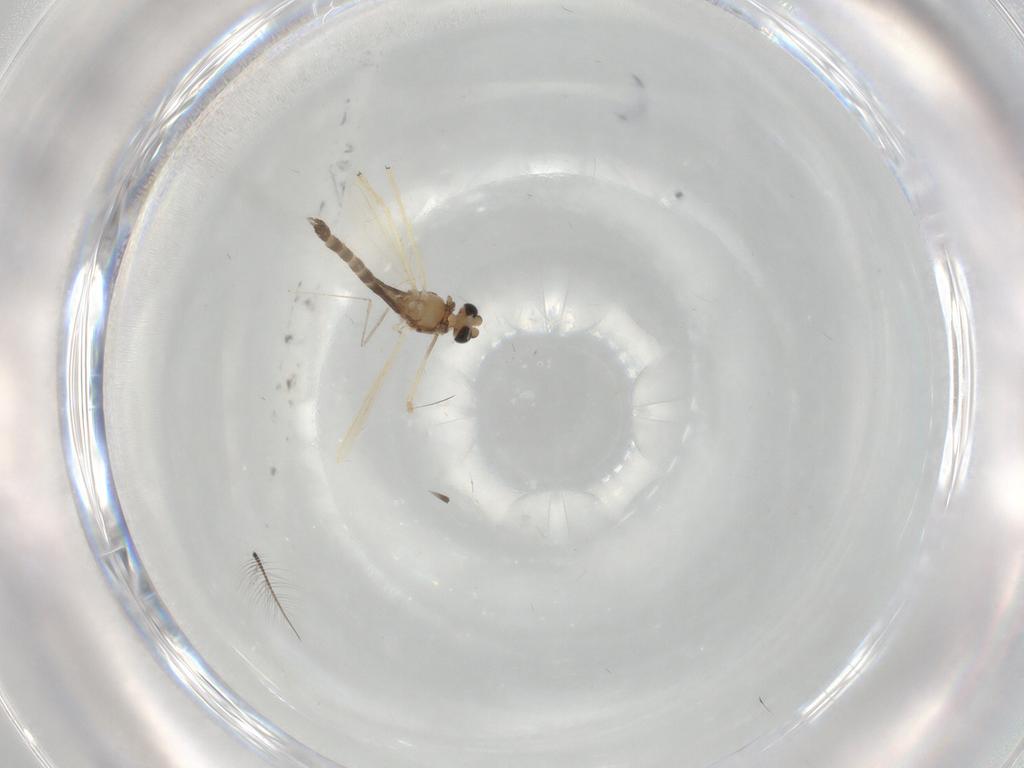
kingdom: Animalia
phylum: Arthropoda
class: Insecta
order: Diptera
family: Chironomidae
